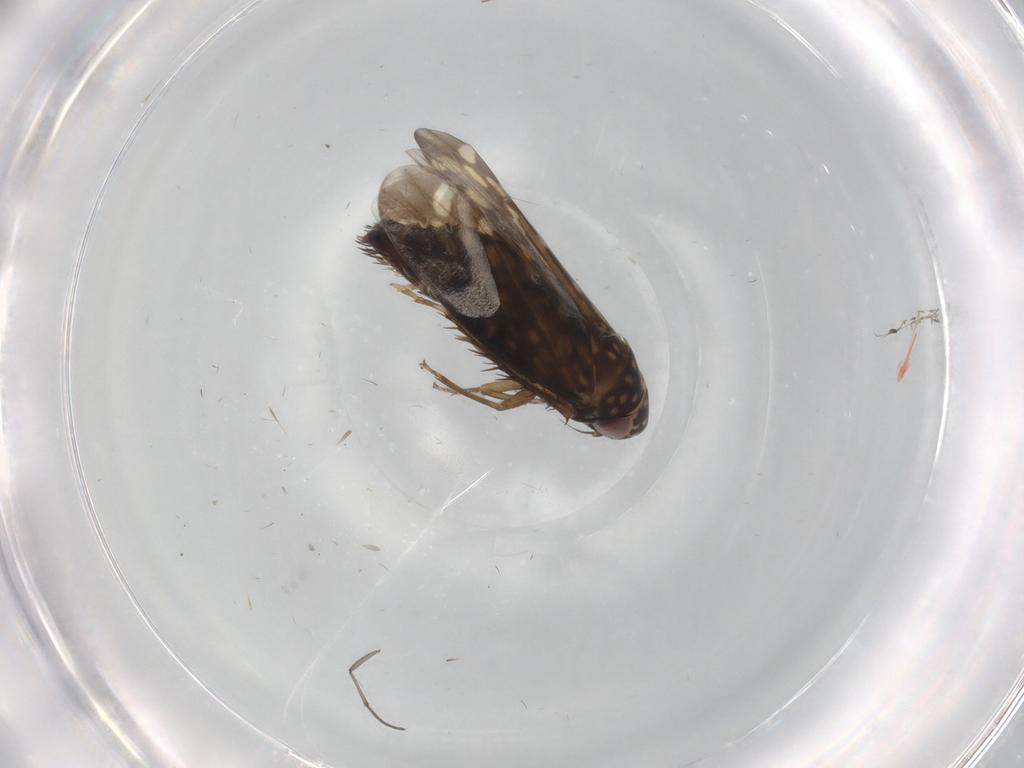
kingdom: Animalia
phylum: Arthropoda
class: Insecta
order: Hemiptera
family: Cicadellidae
